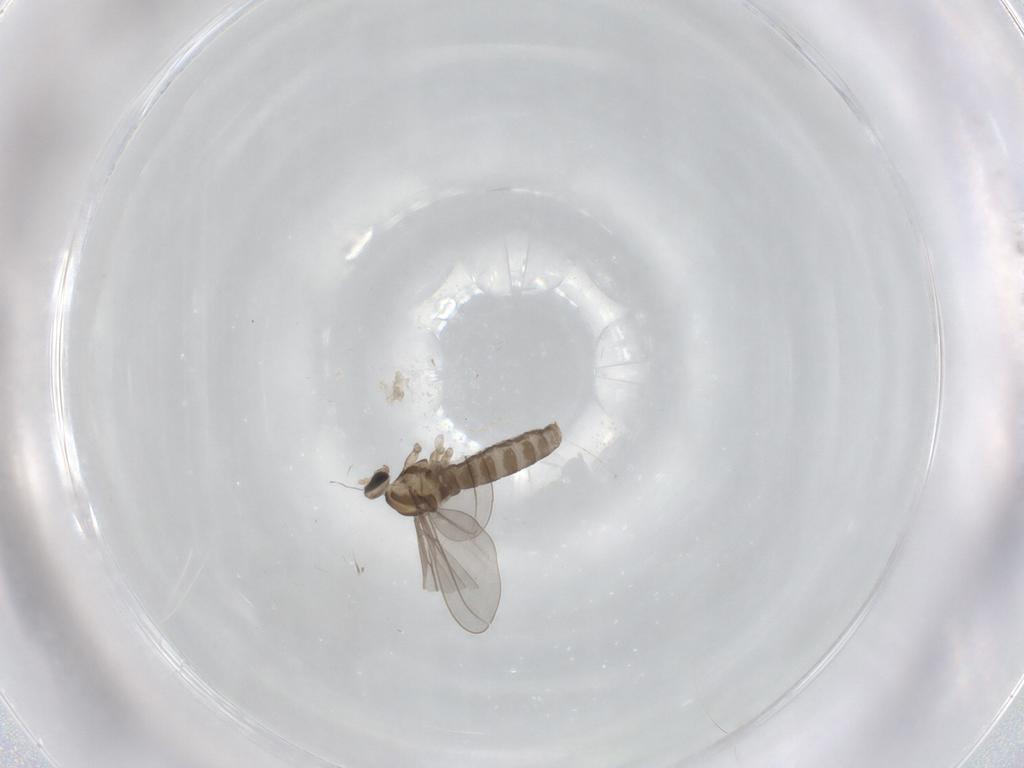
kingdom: Animalia
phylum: Arthropoda
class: Insecta
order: Diptera
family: Cecidomyiidae
